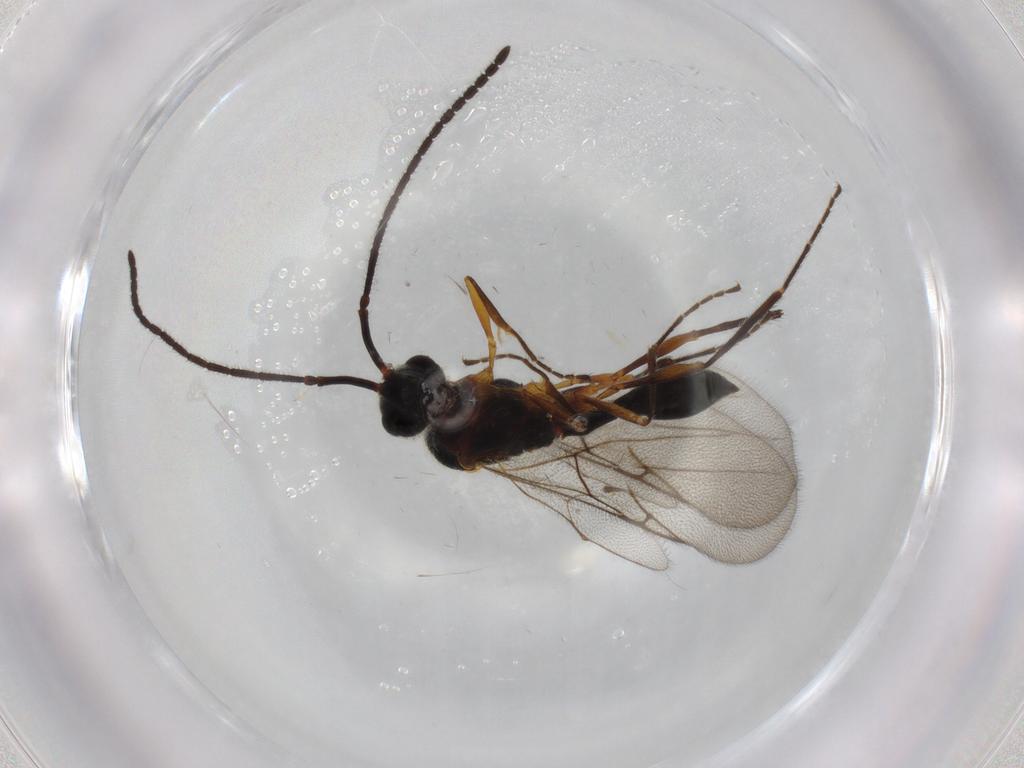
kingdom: Animalia
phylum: Arthropoda
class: Insecta
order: Hymenoptera
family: Diapriidae
